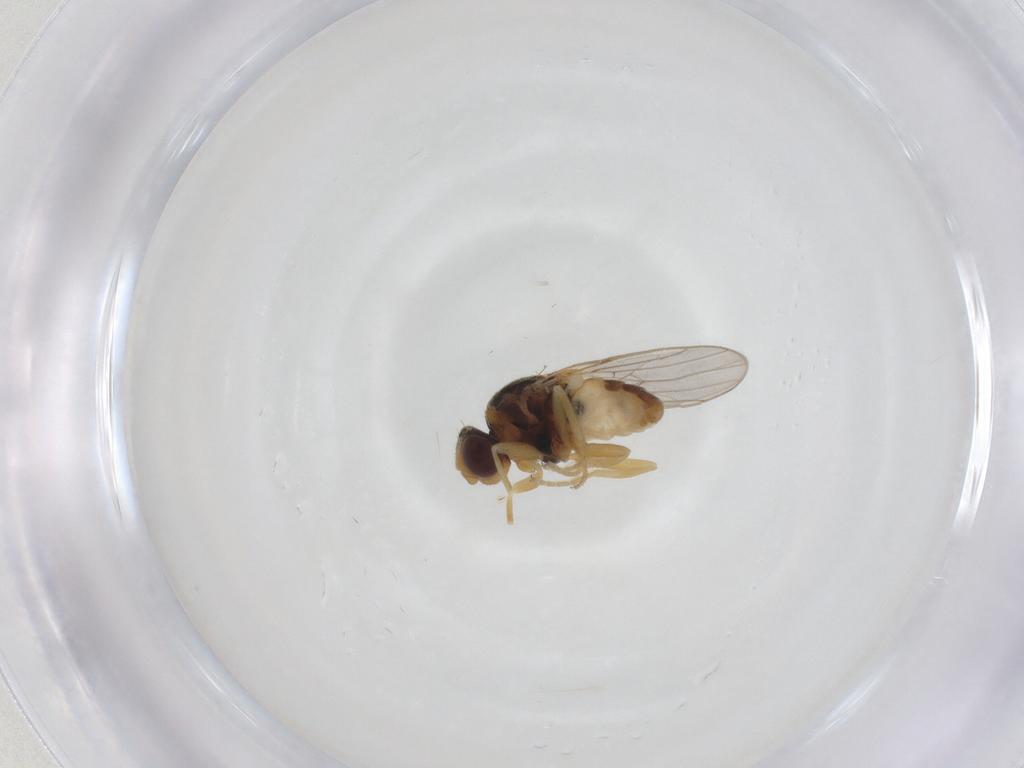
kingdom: Animalia
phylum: Arthropoda
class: Insecta
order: Diptera
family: Chloropidae
